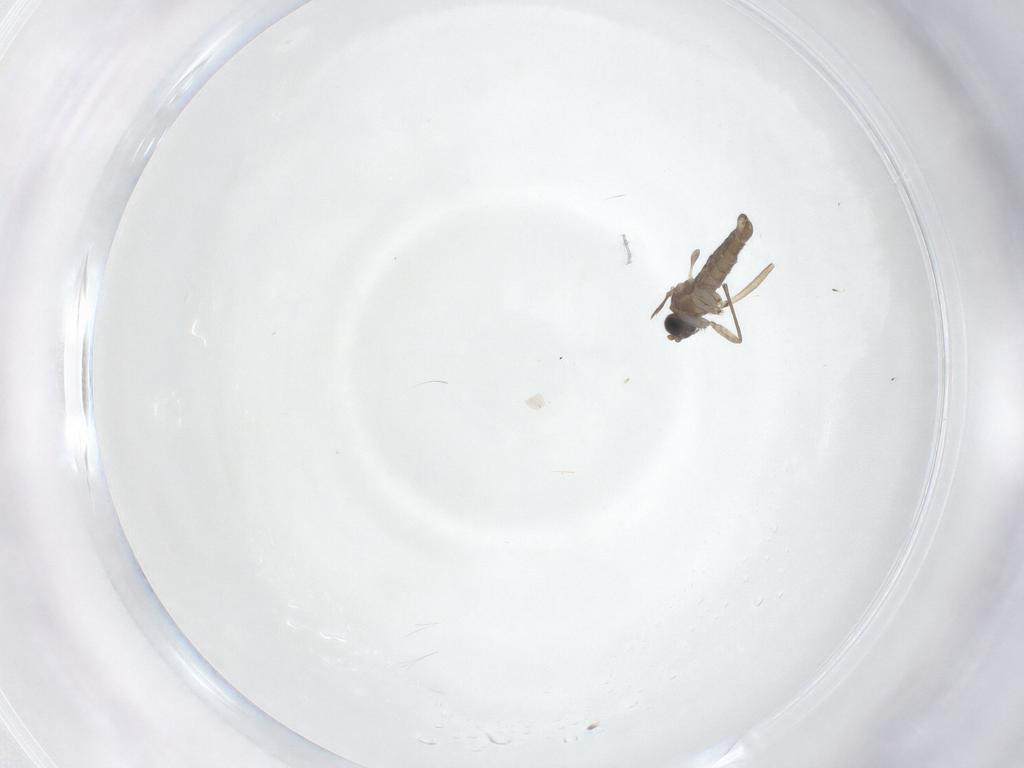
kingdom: Animalia
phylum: Arthropoda
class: Insecta
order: Diptera
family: Sciaridae
